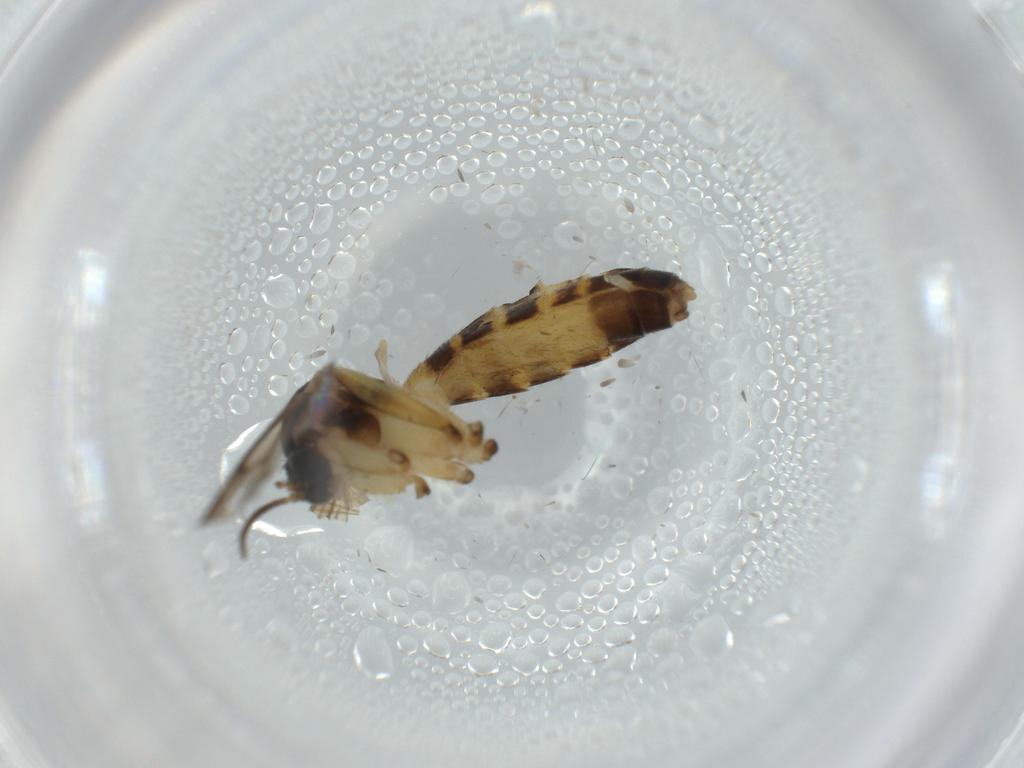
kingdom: Animalia
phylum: Arthropoda
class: Insecta
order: Diptera
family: Mycetophilidae
